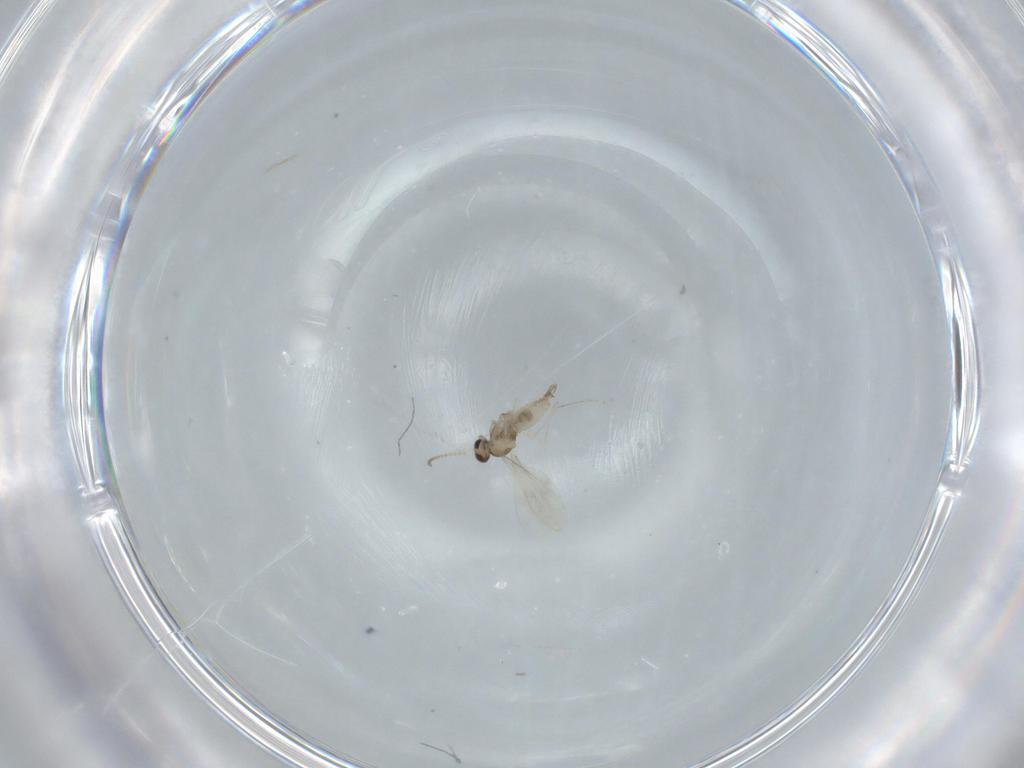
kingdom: Animalia
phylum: Arthropoda
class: Insecta
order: Diptera
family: Cecidomyiidae
